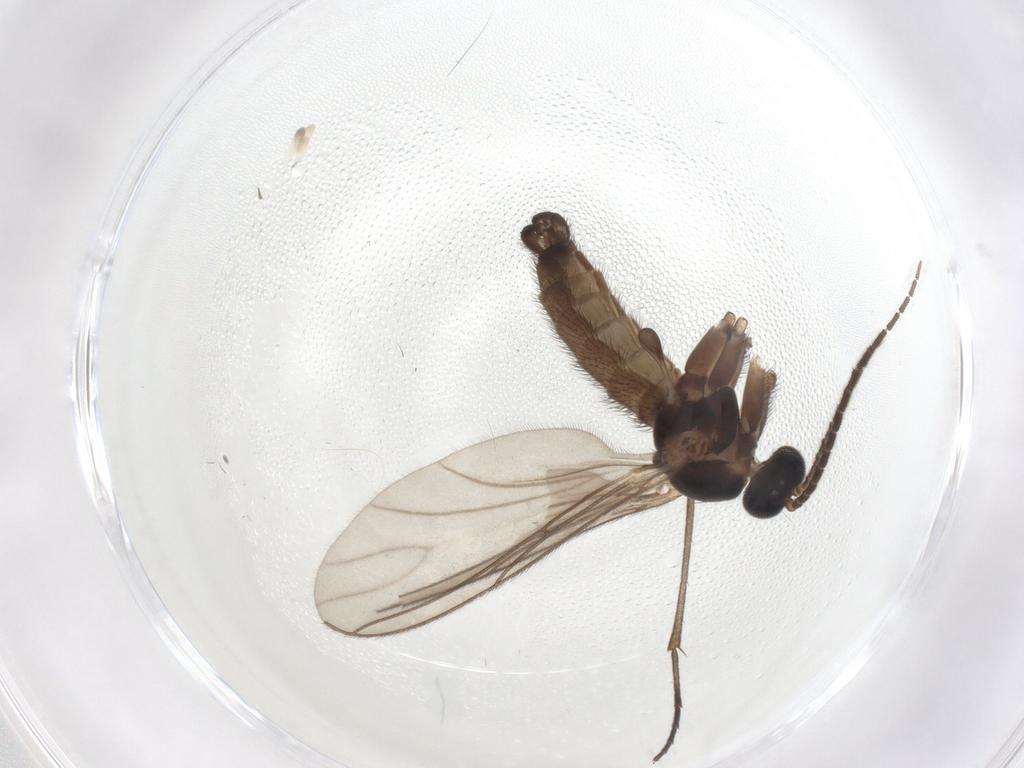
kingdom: Animalia
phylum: Arthropoda
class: Insecta
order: Diptera
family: Sciaridae
